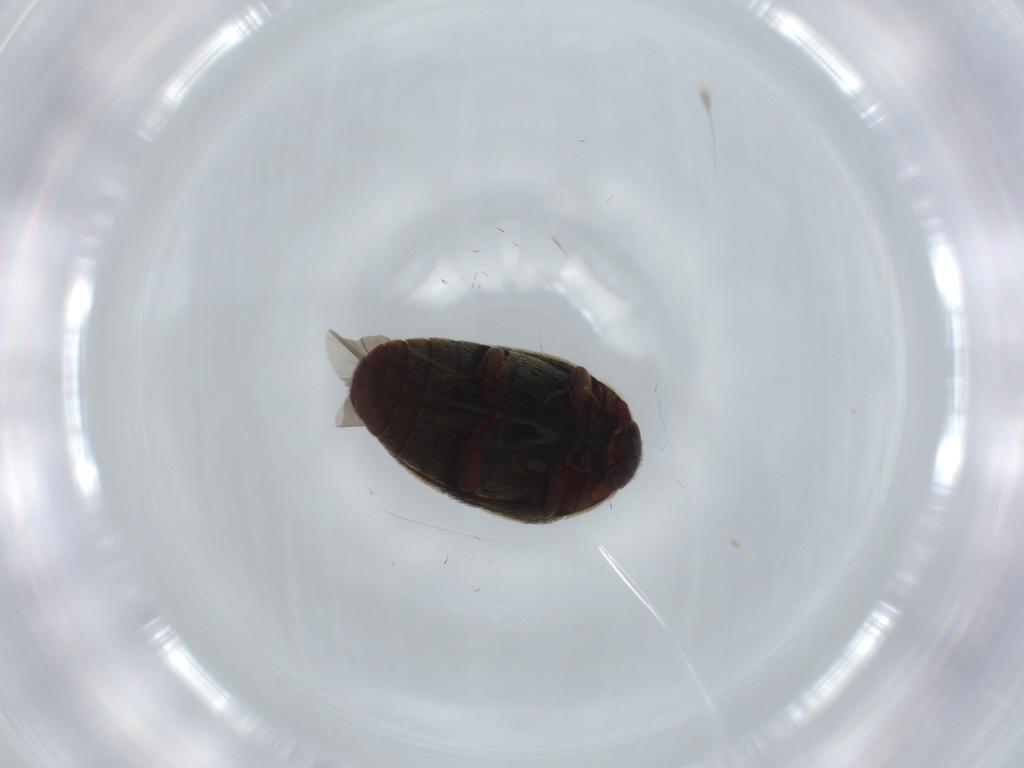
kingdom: Animalia
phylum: Arthropoda
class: Insecta
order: Coleoptera
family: Dermestidae
